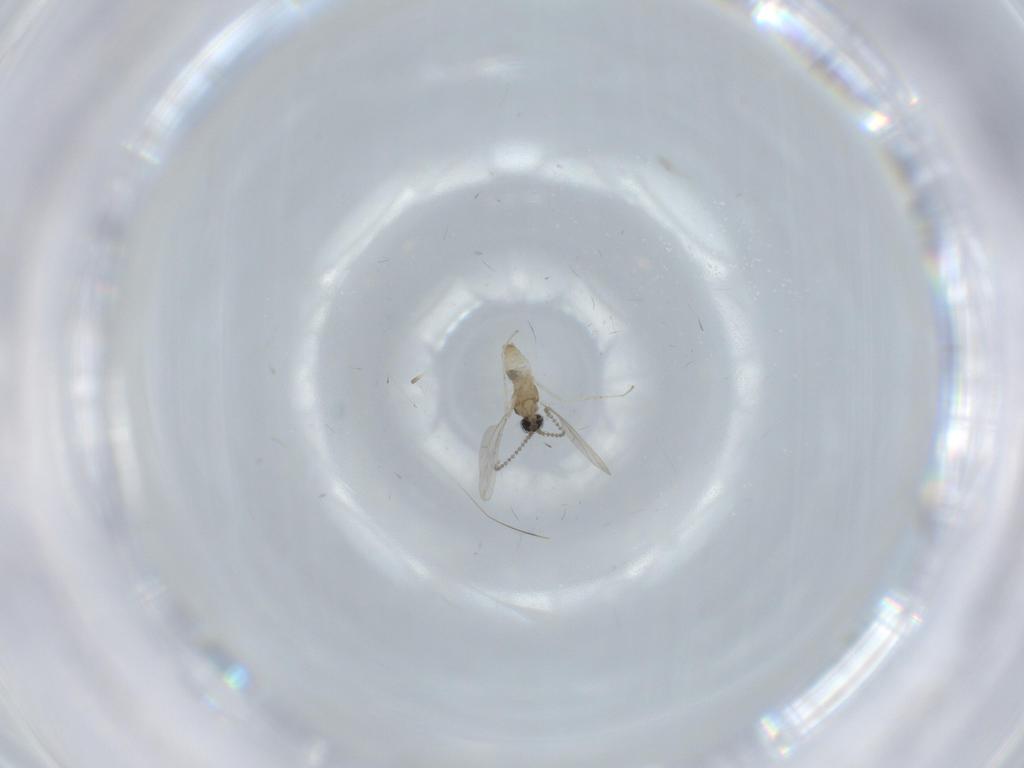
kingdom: Animalia
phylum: Arthropoda
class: Insecta
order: Diptera
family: Cecidomyiidae
